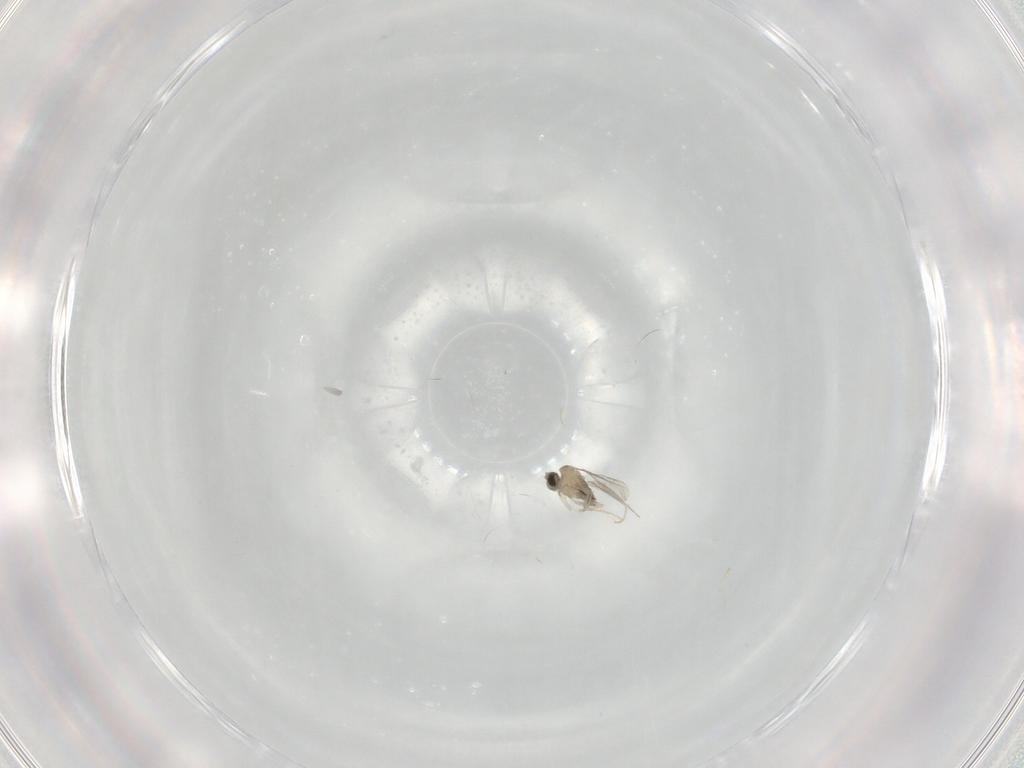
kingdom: Animalia
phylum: Arthropoda
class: Insecta
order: Diptera
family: Cecidomyiidae
